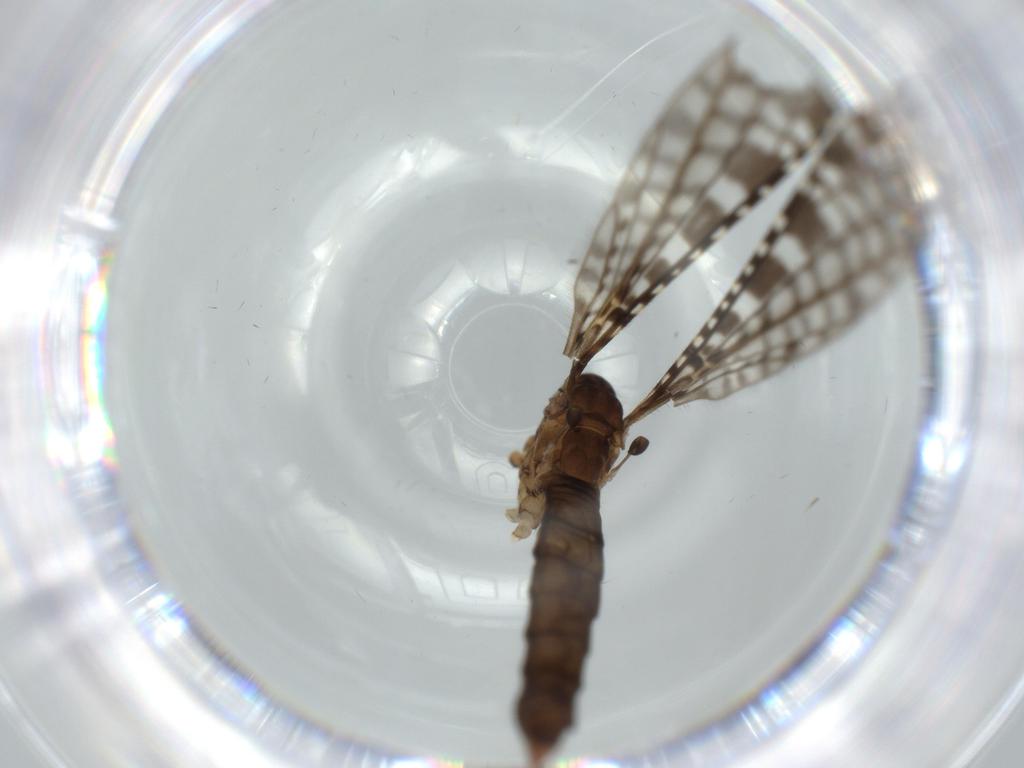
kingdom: Animalia
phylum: Arthropoda
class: Insecta
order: Diptera
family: Limoniidae
